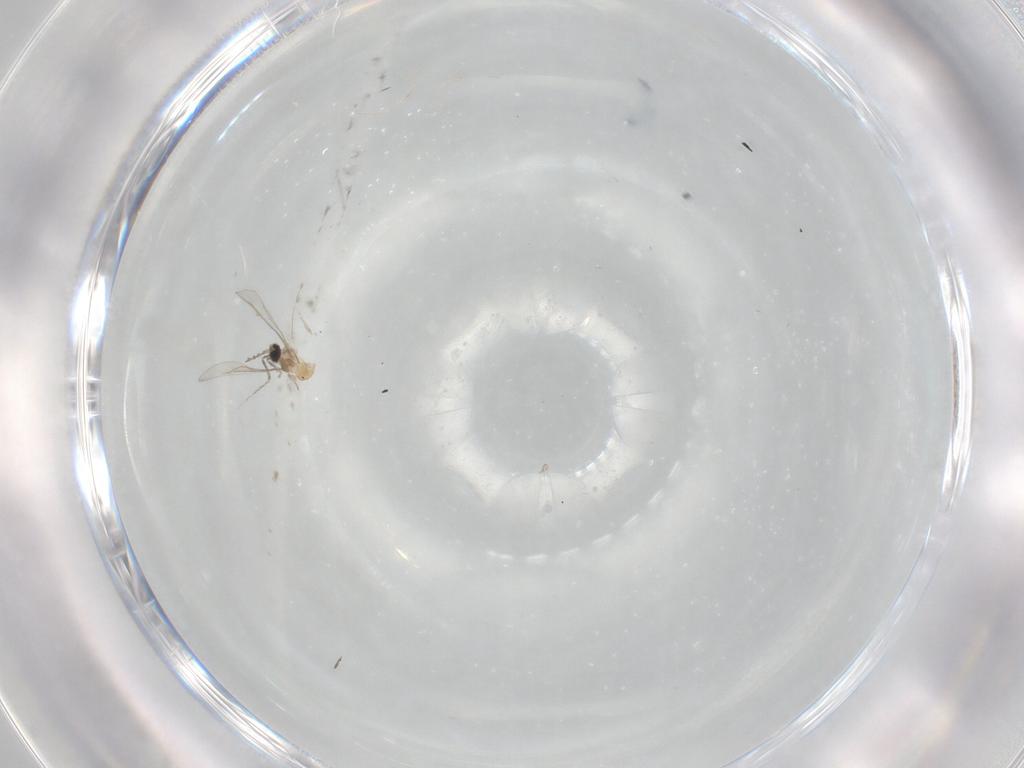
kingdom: Animalia
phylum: Arthropoda
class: Insecta
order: Diptera
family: Cecidomyiidae
